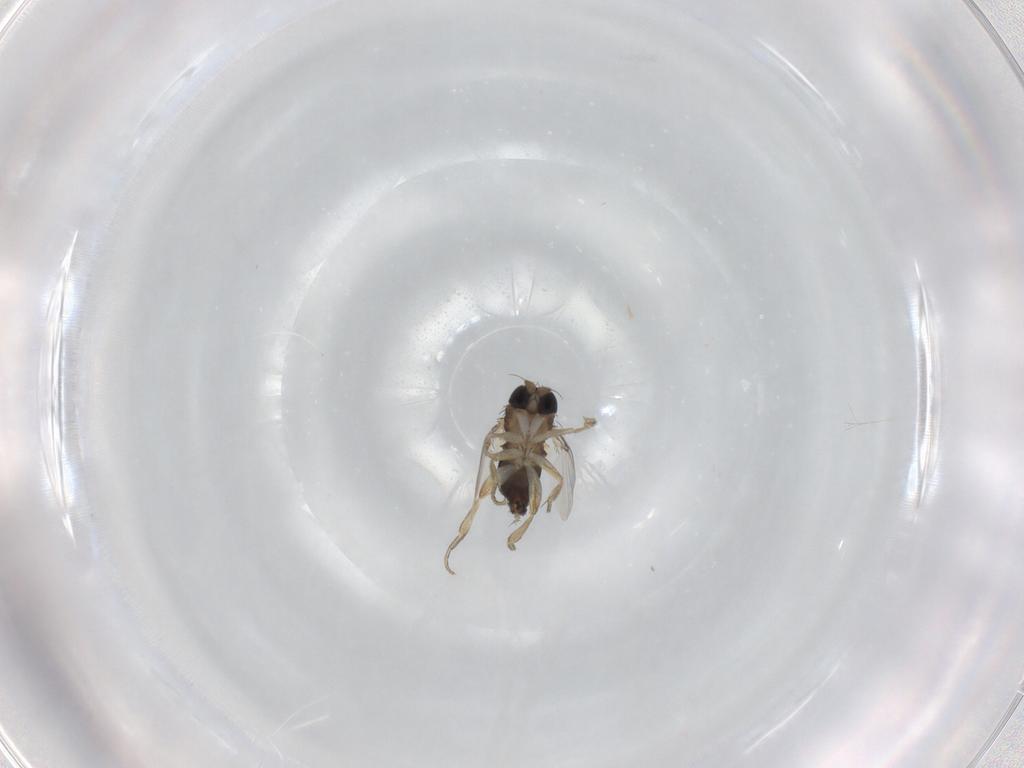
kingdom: Animalia
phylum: Arthropoda
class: Insecta
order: Diptera
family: Phoridae
